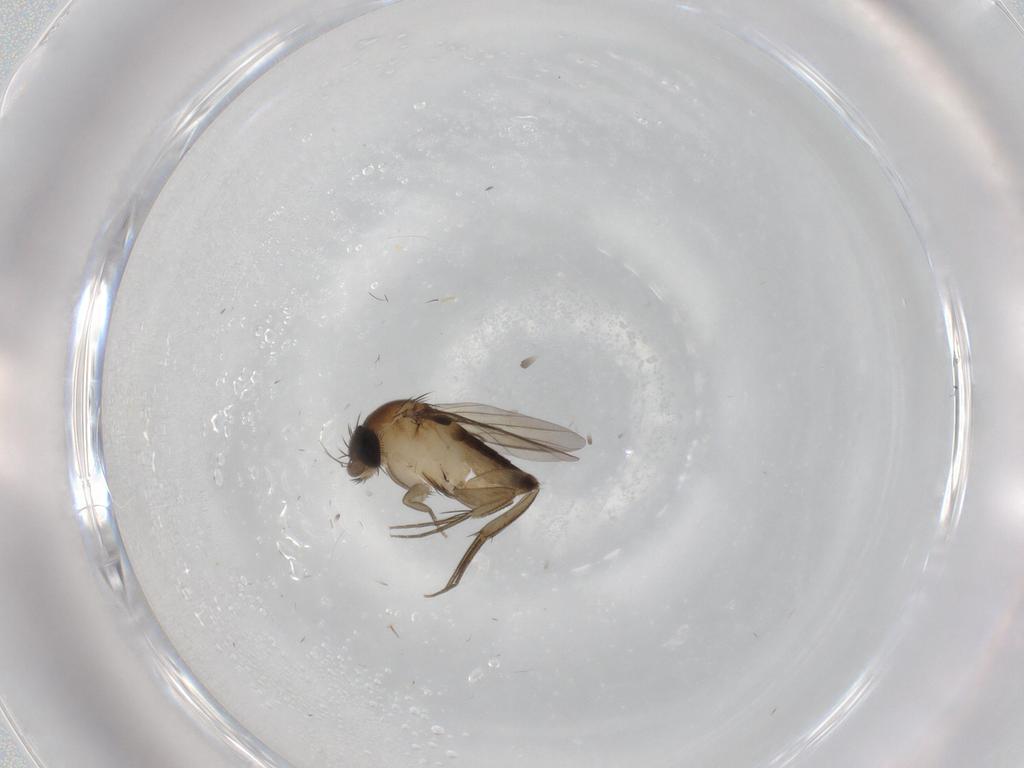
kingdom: Animalia
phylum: Arthropoda
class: Insecta
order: Diptera
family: Phoridae
